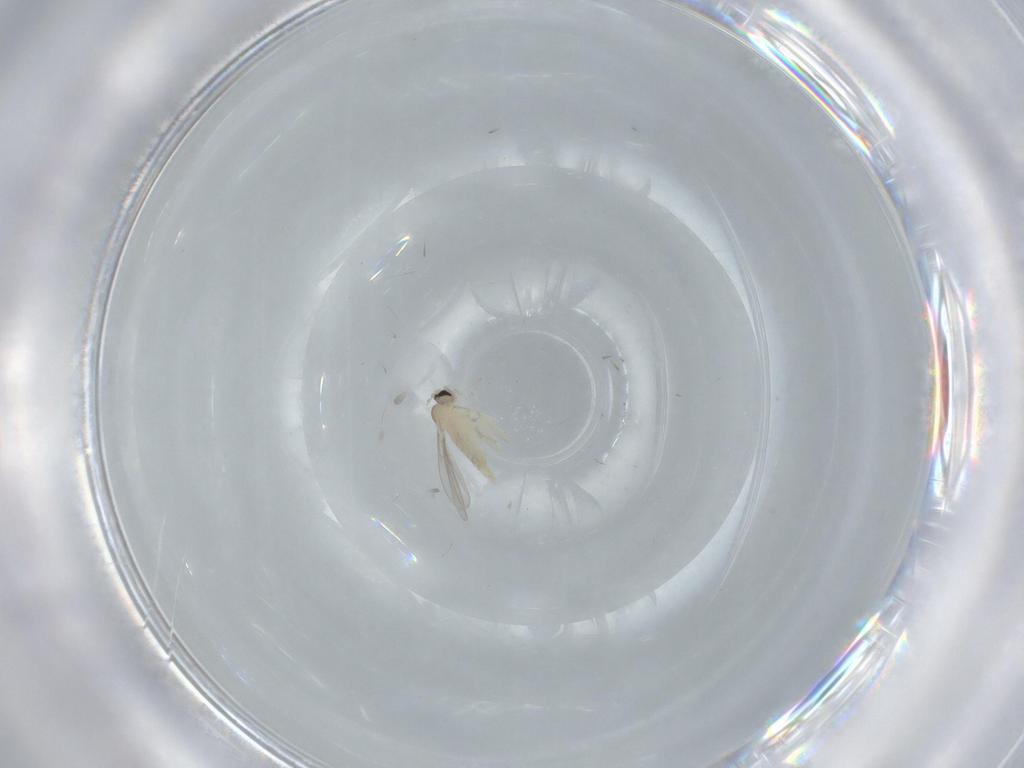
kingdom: Animalia
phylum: Arthropoda
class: Insecta
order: Diptera
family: Cecidomyiidae
